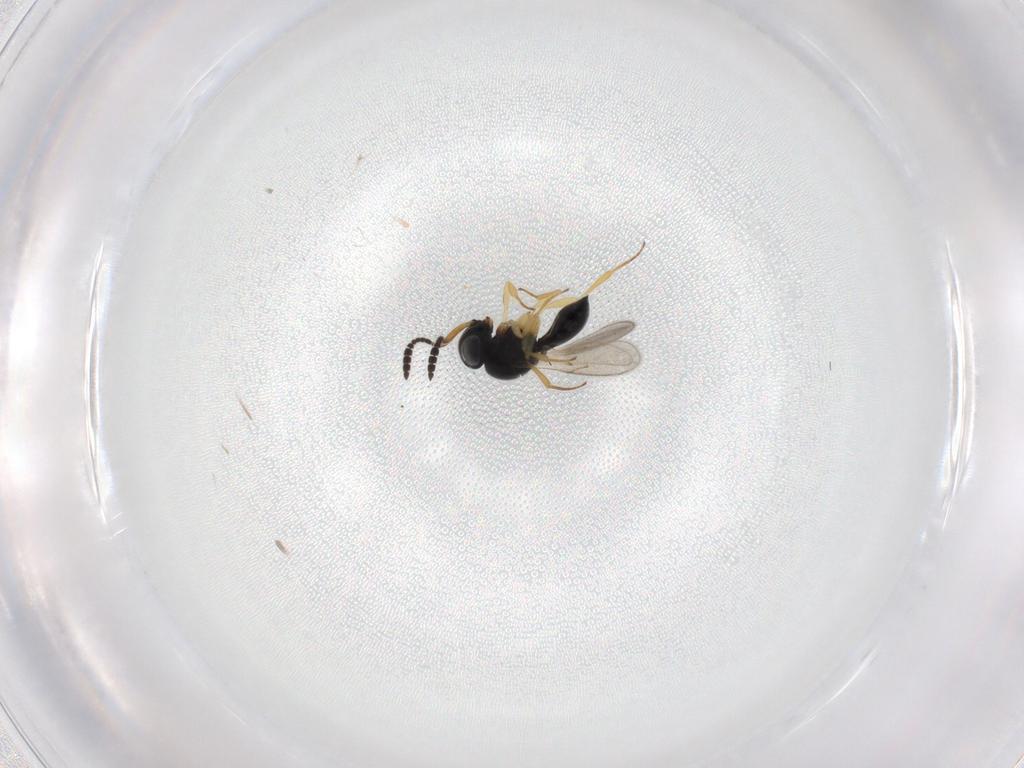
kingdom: Animalia
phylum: Arthropoda
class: Insecta
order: Hymenoptera
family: Scelionidae
